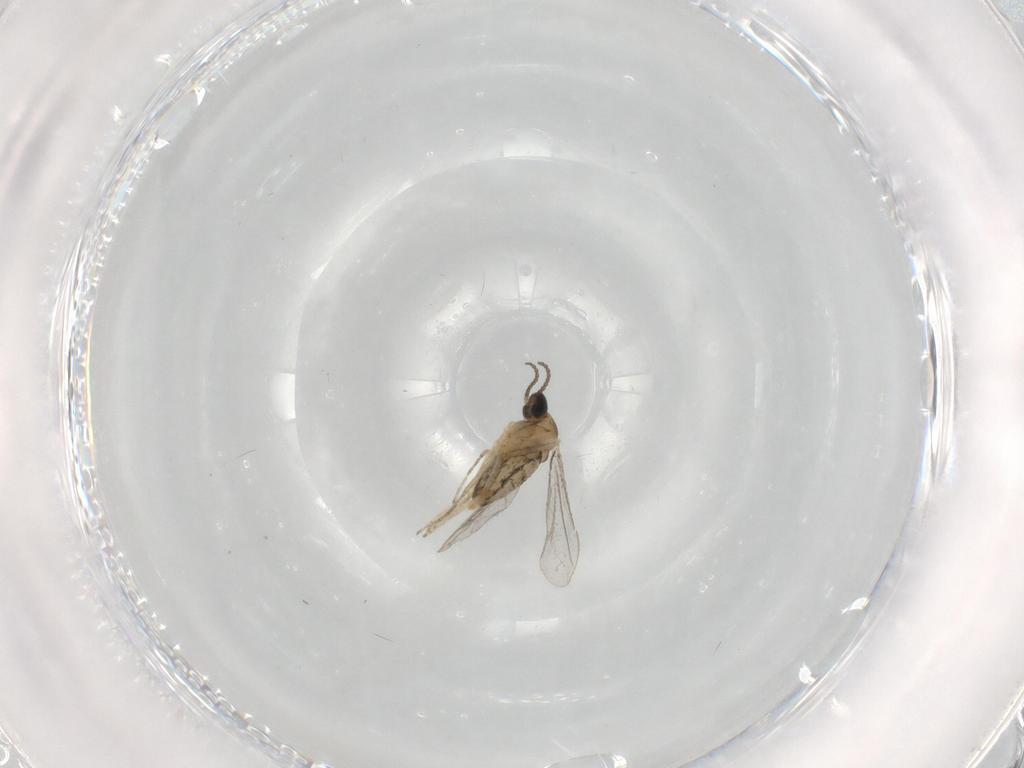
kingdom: Animalia
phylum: Arthropoda
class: Insecta
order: Diptera
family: Cecidomyiidae
